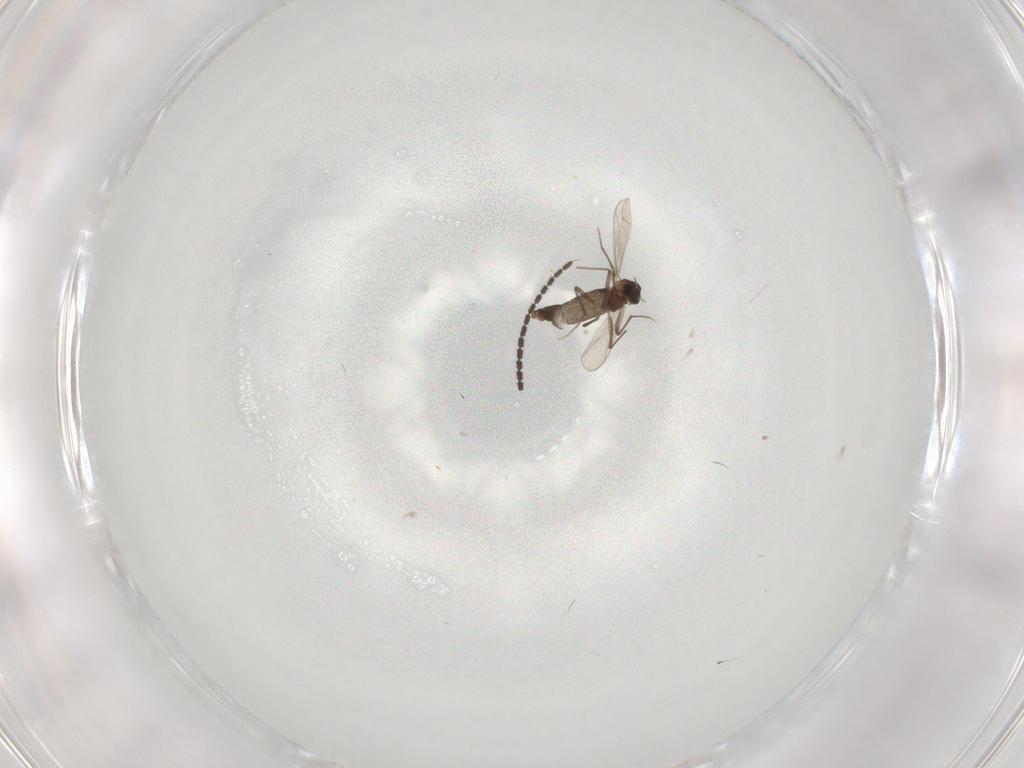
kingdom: Animalia
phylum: Arthropoda
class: Insecta
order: Diptera
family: Chironomidae
